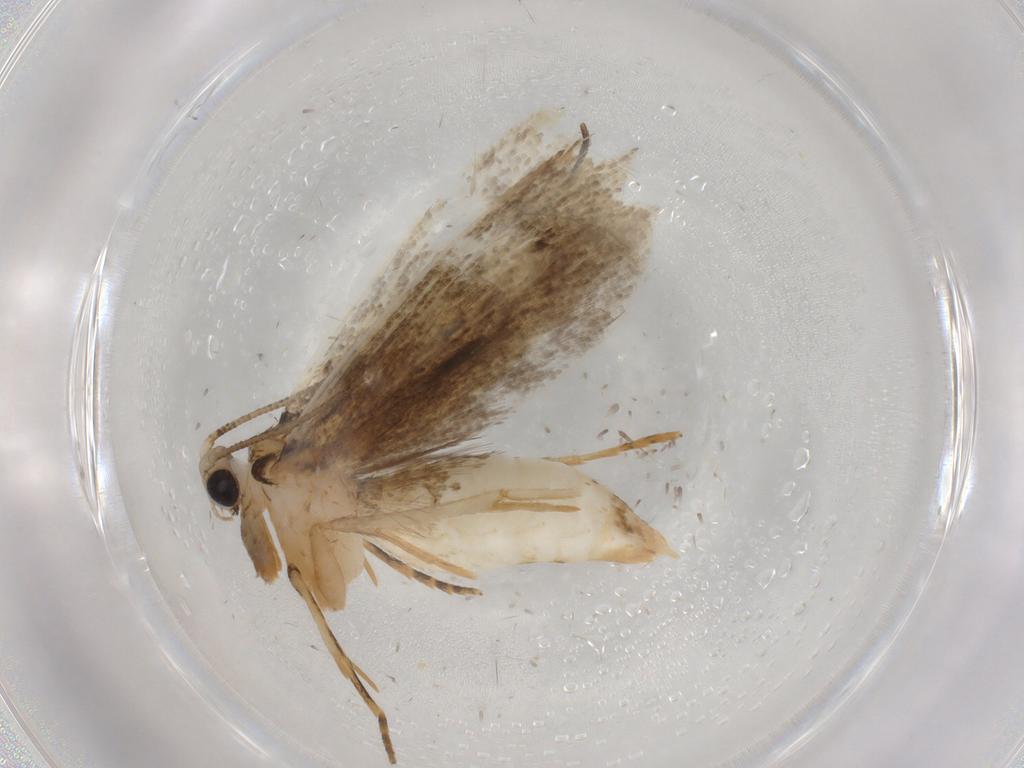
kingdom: Animalia
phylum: Arthropoda
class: Insecta
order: Lepidoptera
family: Tineidae
